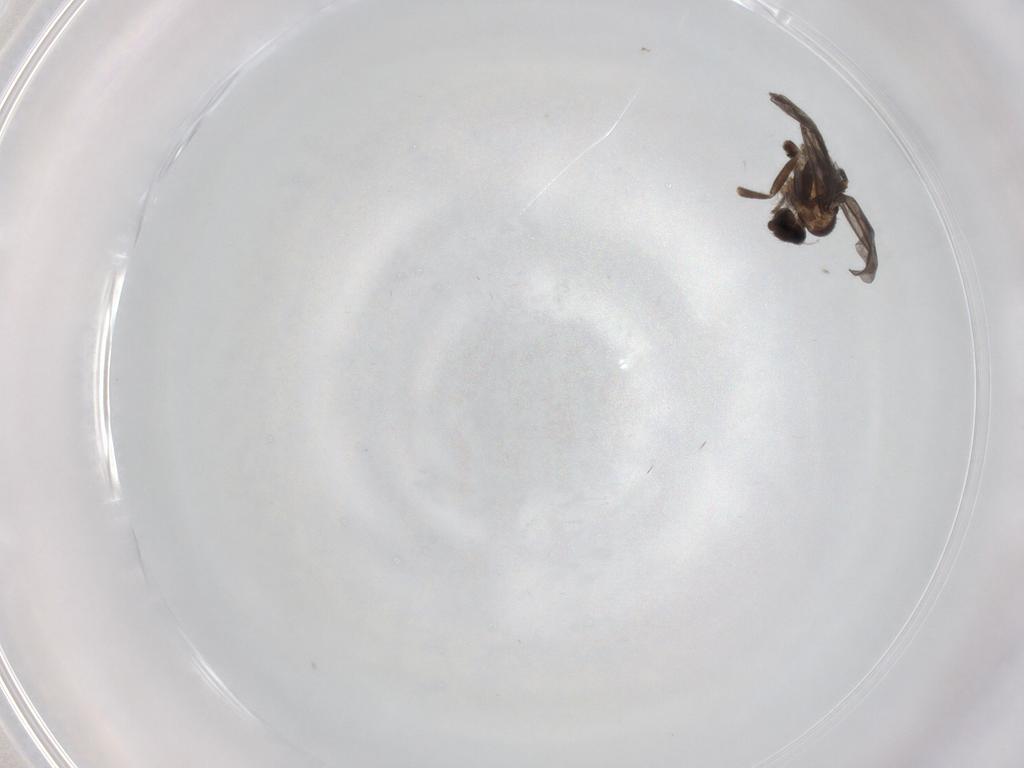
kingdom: Animalia
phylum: Arthropoda
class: Insecta
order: Diptera
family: Chironomidae
